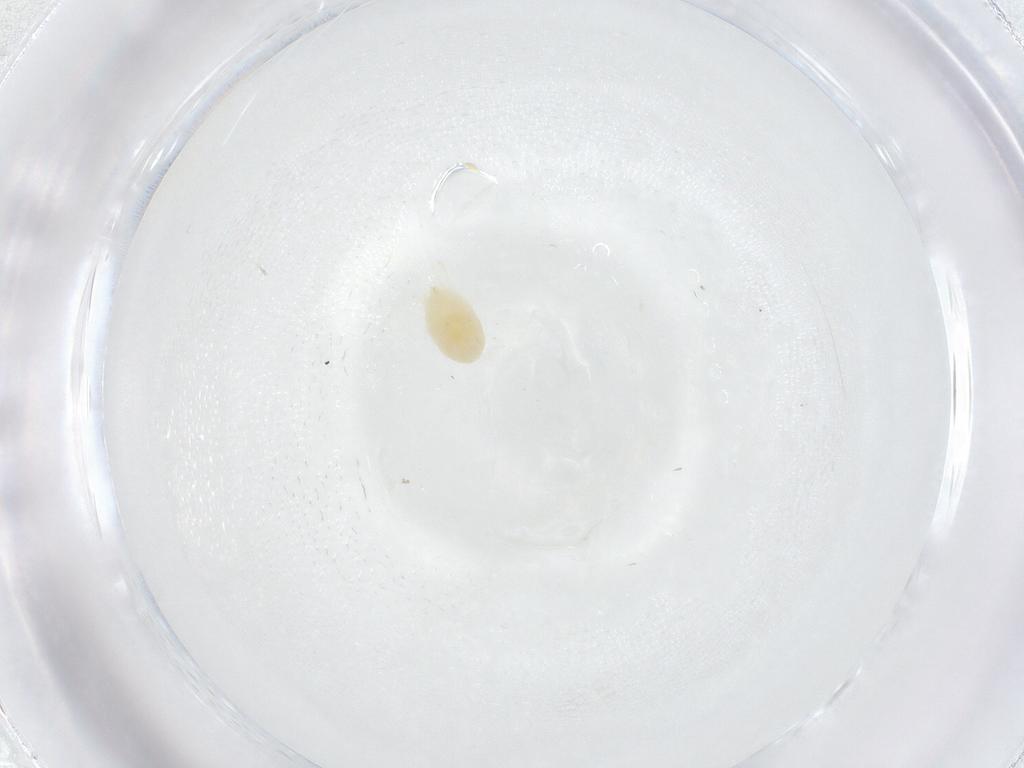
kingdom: Animalia
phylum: Arthropoda
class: Arachnida
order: Trombidiformes
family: Pionidae
